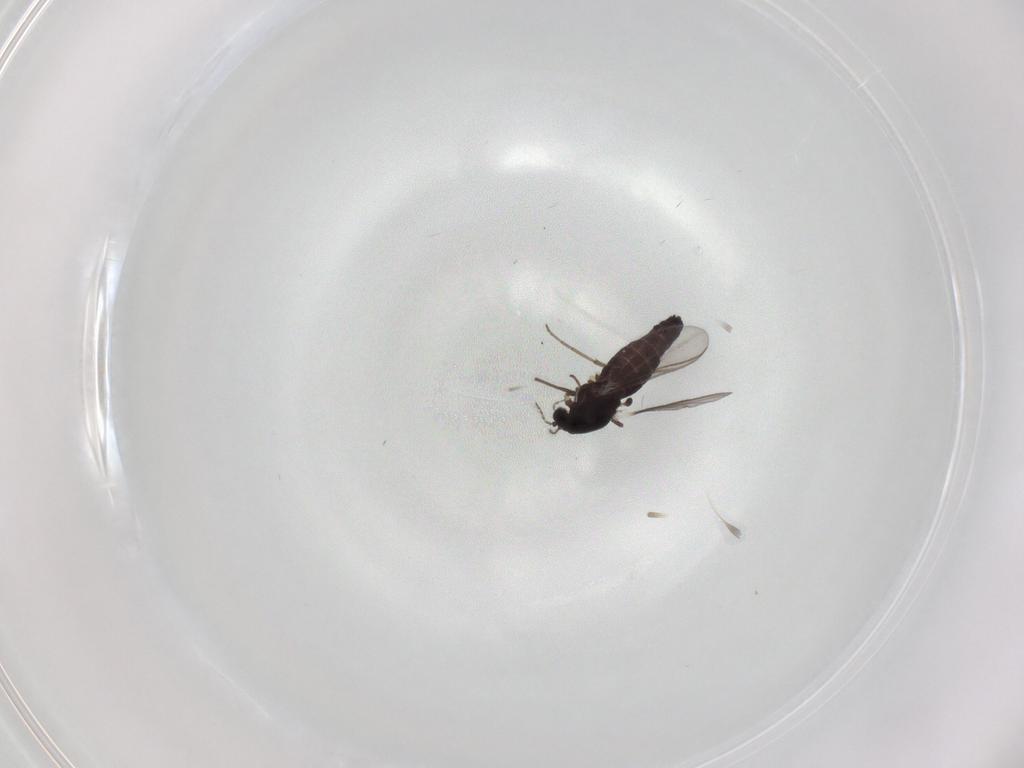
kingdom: Animalia
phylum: Arthropoda
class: Insecta
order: Diptera
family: Chironomidae
